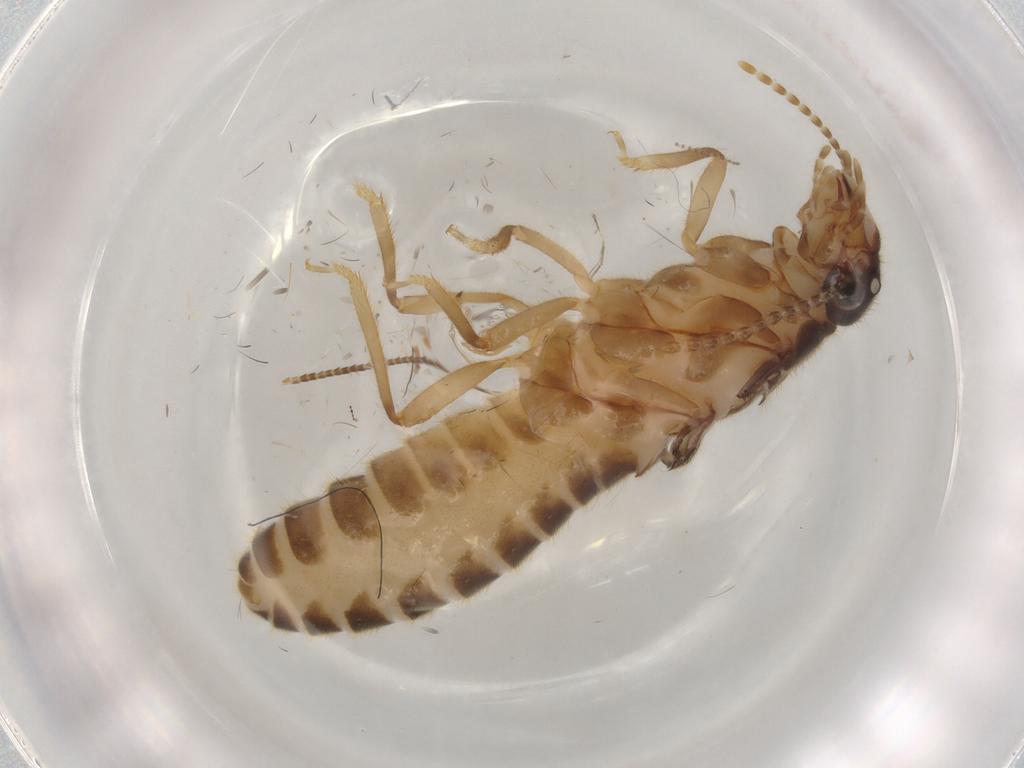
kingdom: Animalia
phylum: Arthropoda
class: Insecta
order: Blattodea
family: Termitidae
